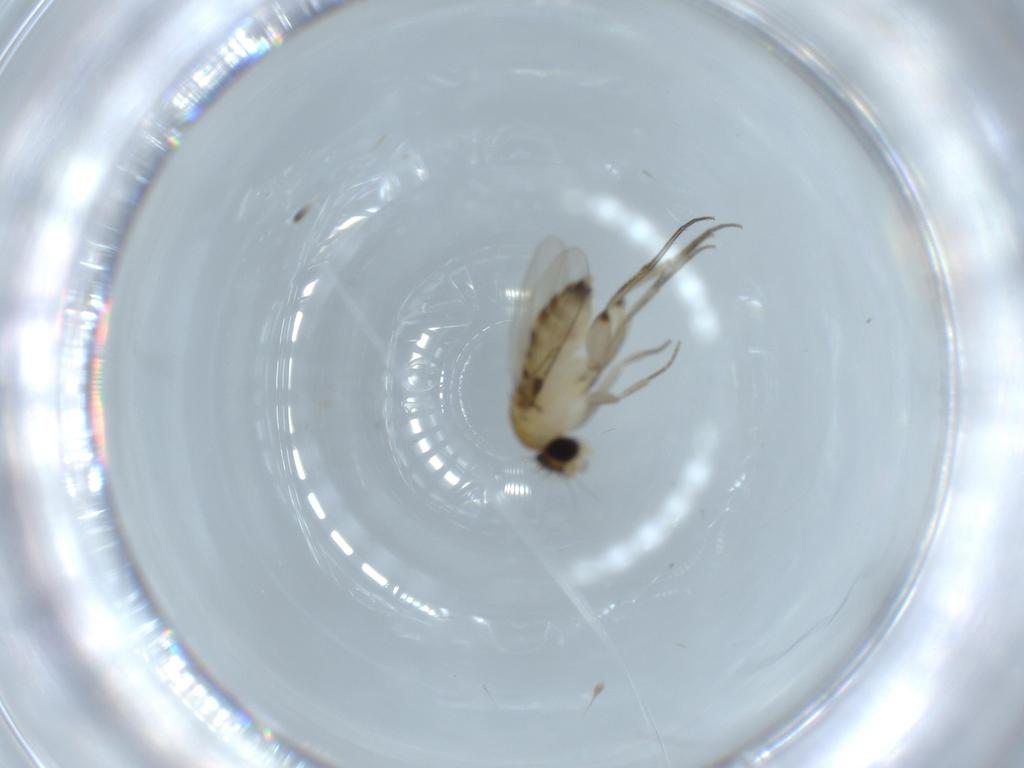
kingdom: Animalia
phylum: Arthropoda
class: Insecta
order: Diptera
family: Phoridae
